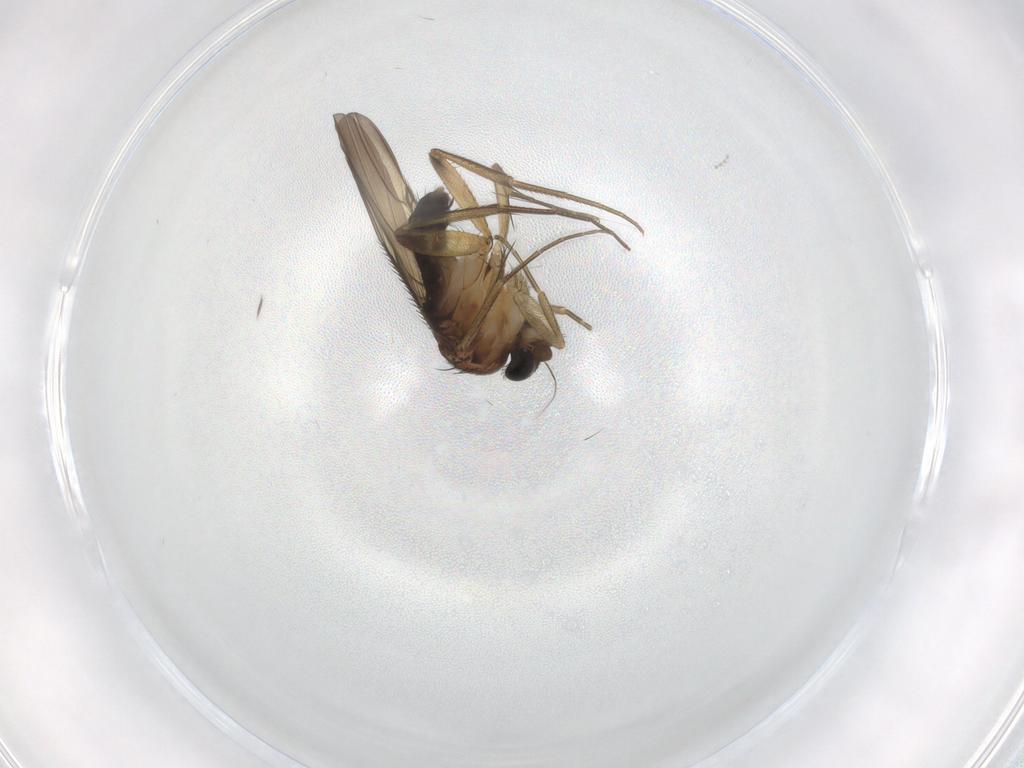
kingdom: Animalia
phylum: Arthropoda
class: Insecta
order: Diptera
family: Phoridae
